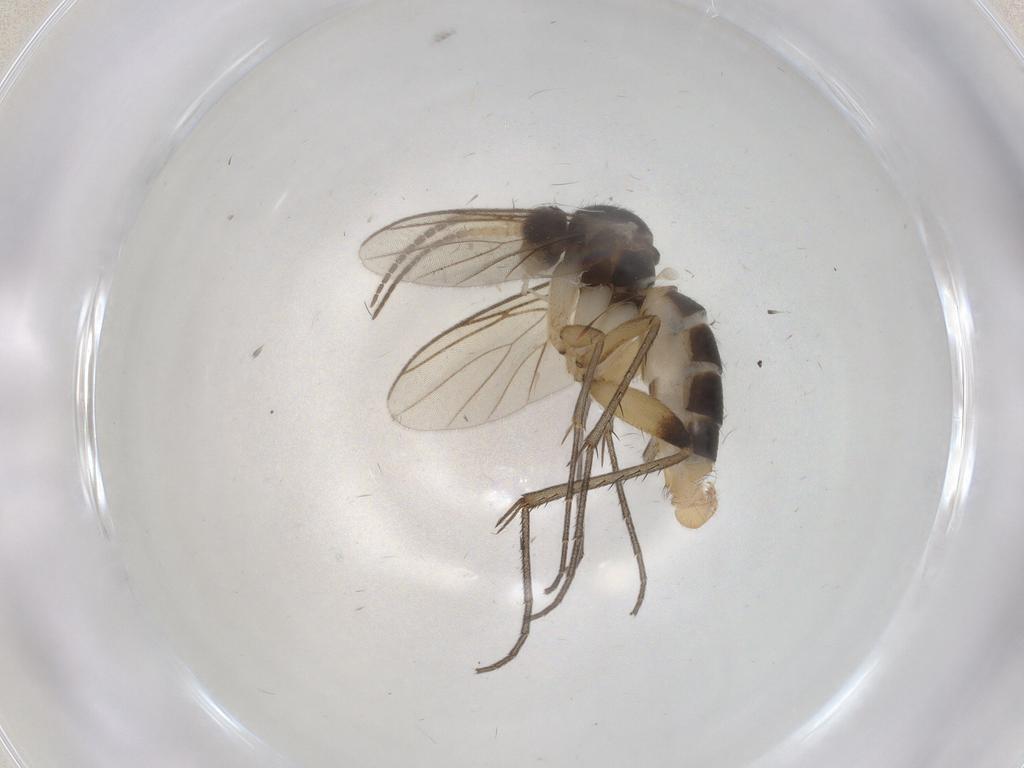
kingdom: Animalia
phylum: Arthropoda
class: Insecta
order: Diptera
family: Mycetophilidae
